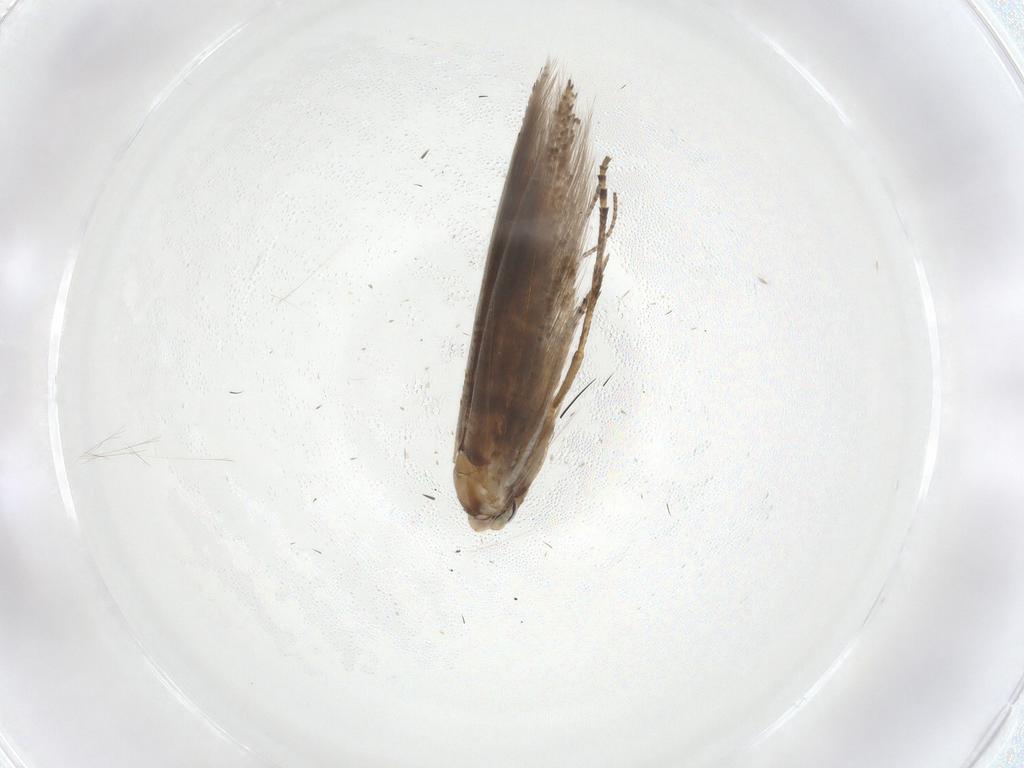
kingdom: Animalia
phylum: Arthropoda
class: Insecta
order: Lepidoptera
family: Bucculatricidae
